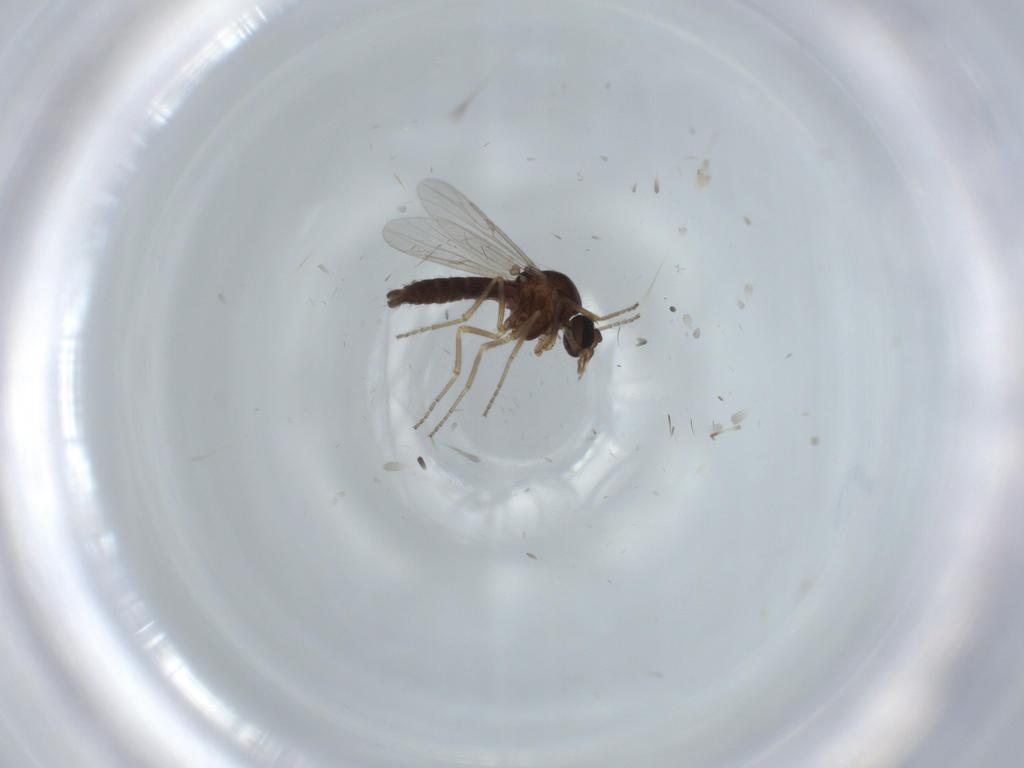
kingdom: Animalia
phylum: Arthropoda
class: Insecta
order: Diptera
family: Ceratopogonidae
